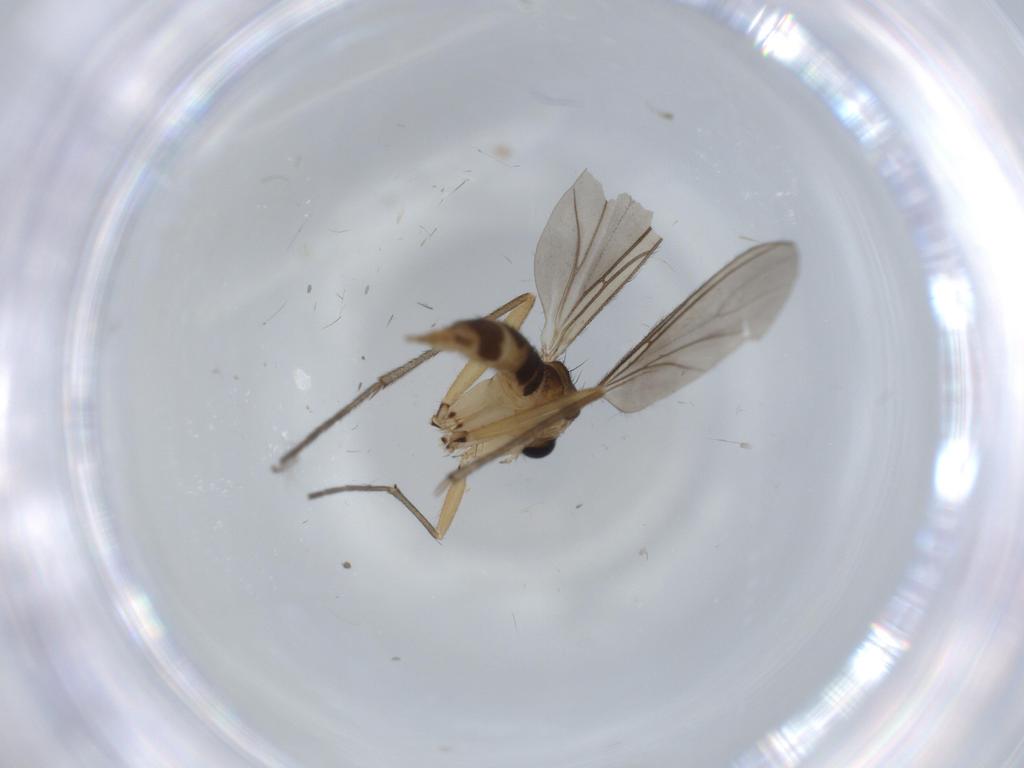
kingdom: Animalia
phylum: Arthropoda
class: Insecta
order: Diptera
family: Sciaridae
